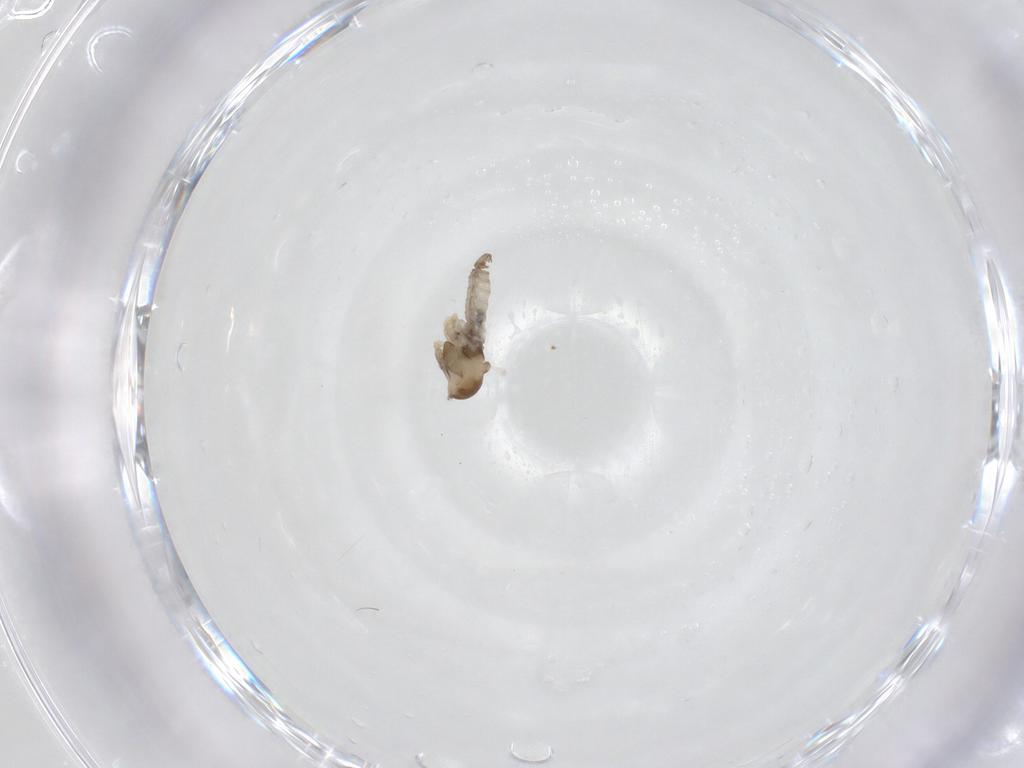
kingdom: Animalia
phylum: Arthropoda
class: Insecta
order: Diptera
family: Cecidomyiidae
